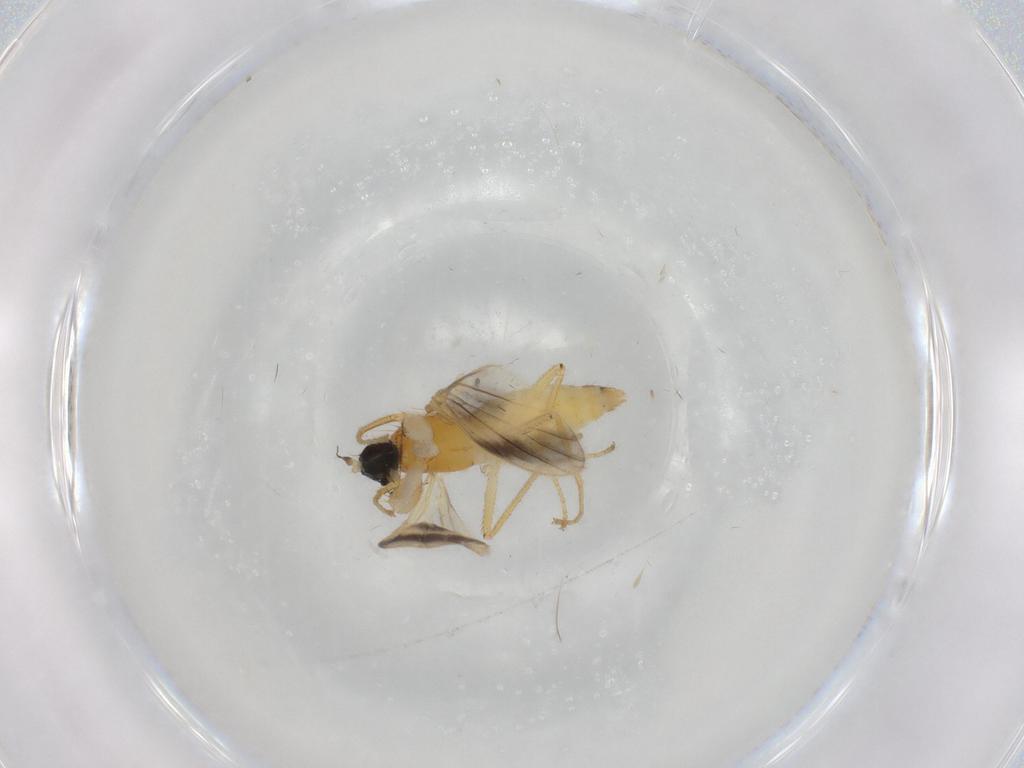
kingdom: Animalia
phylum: Arthropoda
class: Insecta
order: Diptera
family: Empididae
